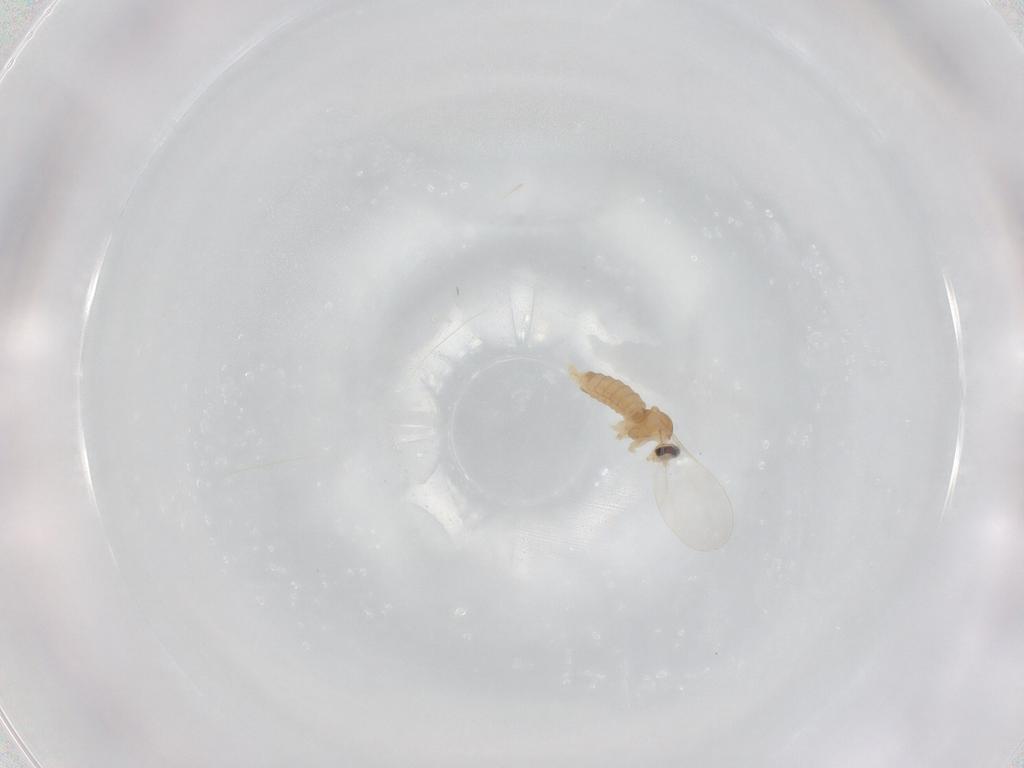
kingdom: Animalia
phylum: Arthropoda
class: Insecta
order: Diptera
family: Cecidomyiidae
